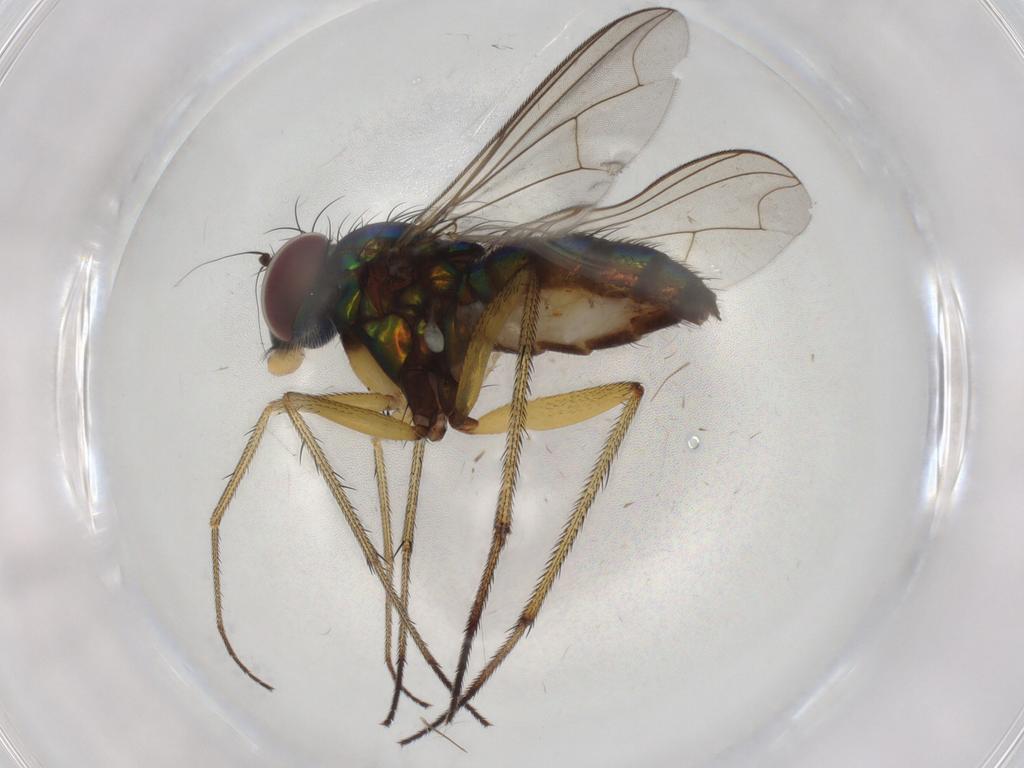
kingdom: Animalia
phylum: Arthropoda
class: Insecta
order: Diptera
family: Dolichopodidae
